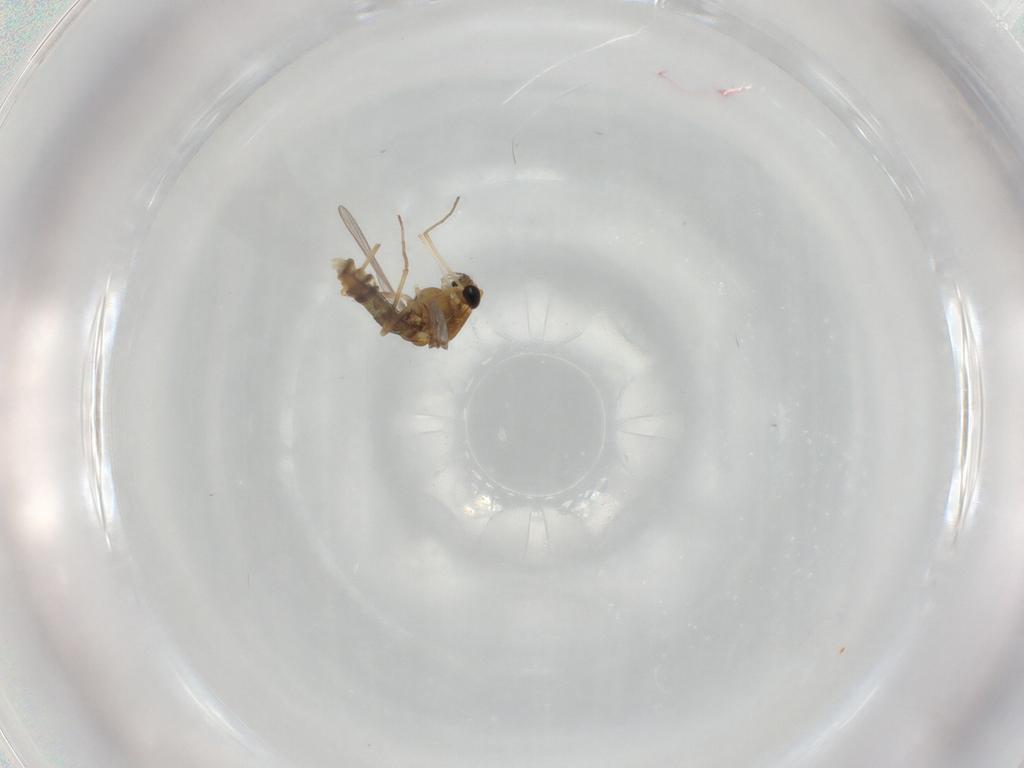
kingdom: Animalia
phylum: Arthropoda
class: Insecta
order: Diptera
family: Chironomidae
